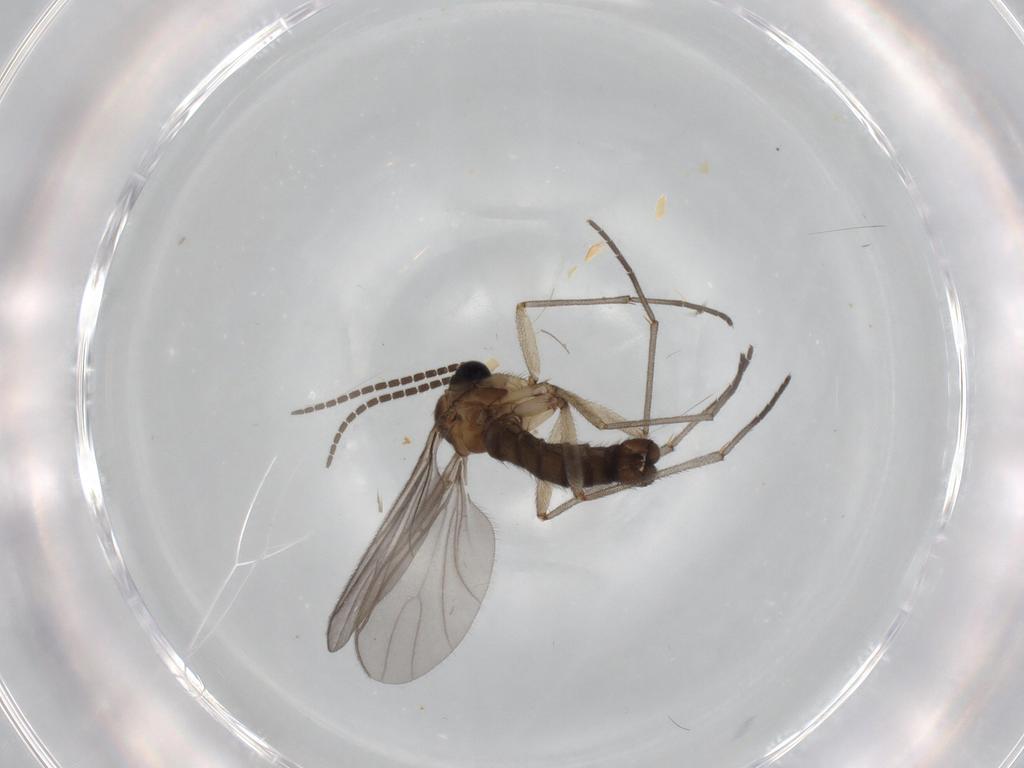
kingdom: Animalia
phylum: Arthropoda
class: Insecta
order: Diptera
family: Sciaridae
